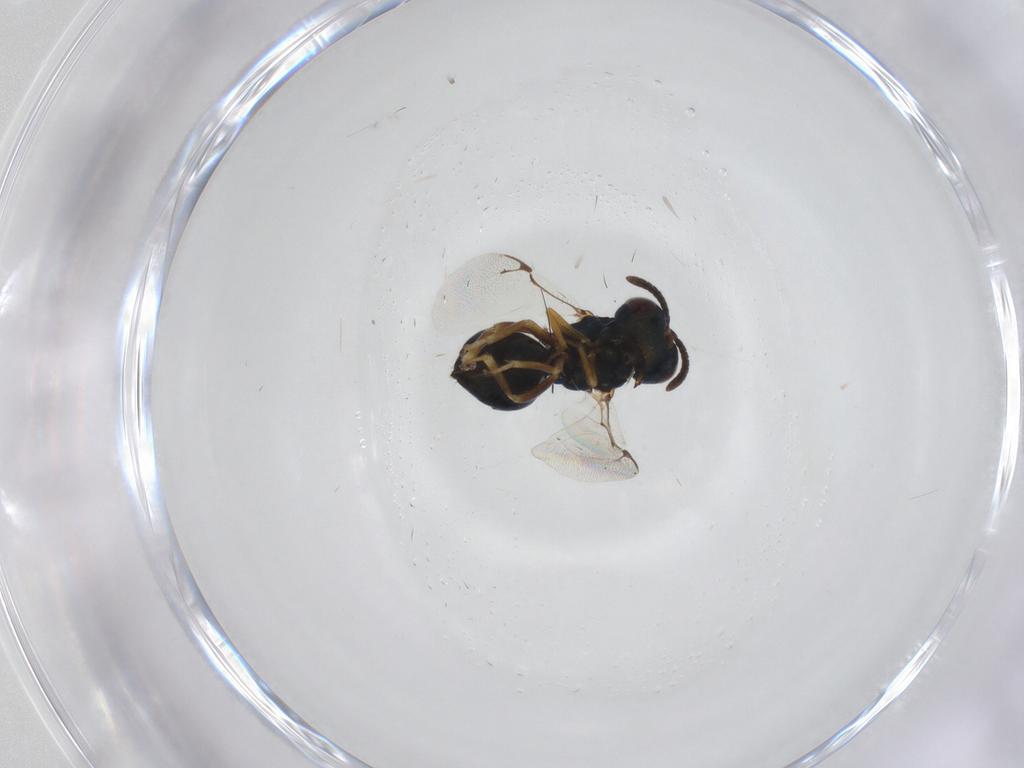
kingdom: Animalia
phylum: Arthropoda
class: Insecta
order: Hymenoptera
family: Pteromalidae
